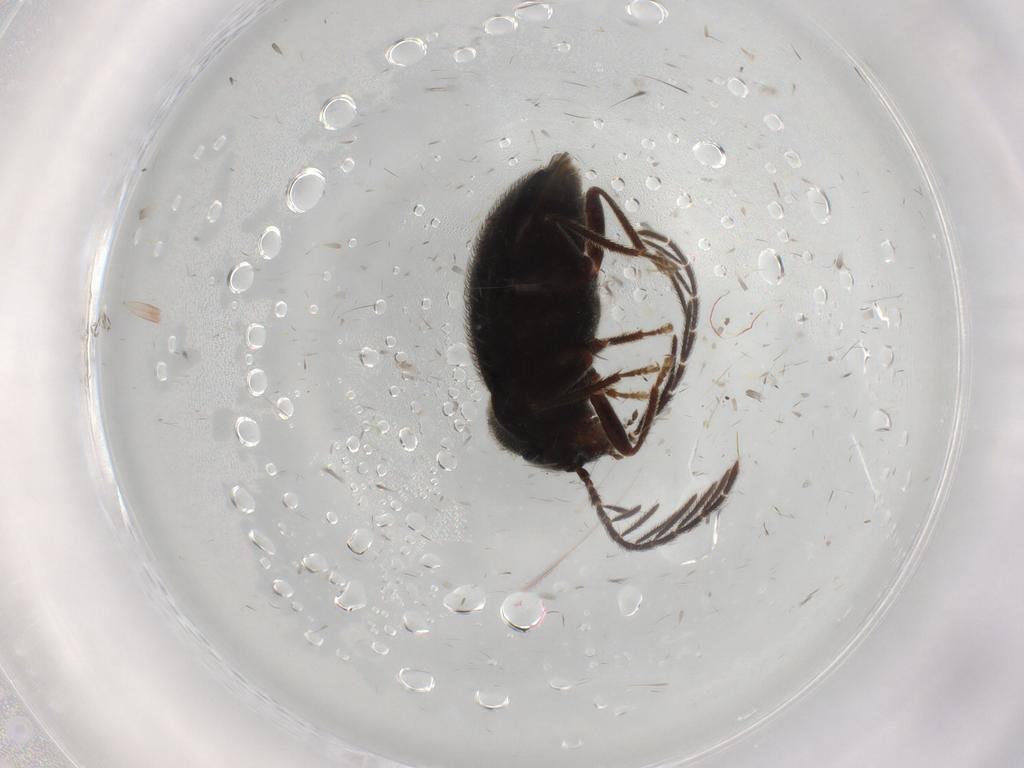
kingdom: Animalia
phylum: Arthropoda
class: Insecta
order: Coleoptera
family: Ptilodactylidae
